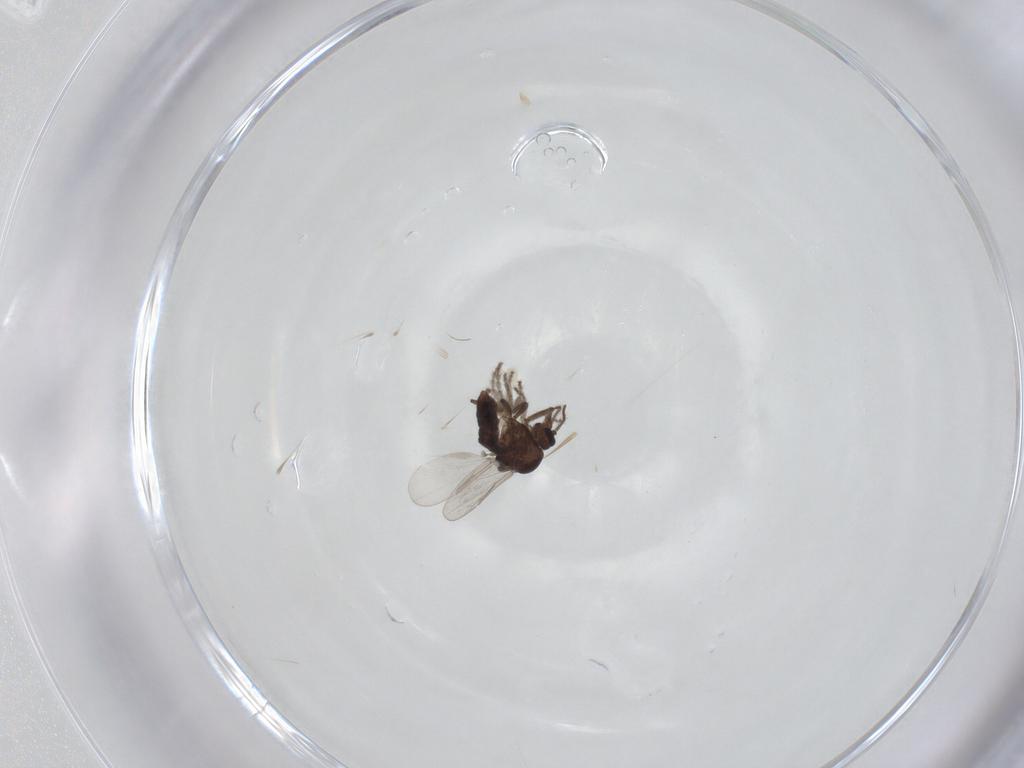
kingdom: Animalia
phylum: Arthropoda
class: Insecta
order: Diptera
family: Ceratopogonidae
